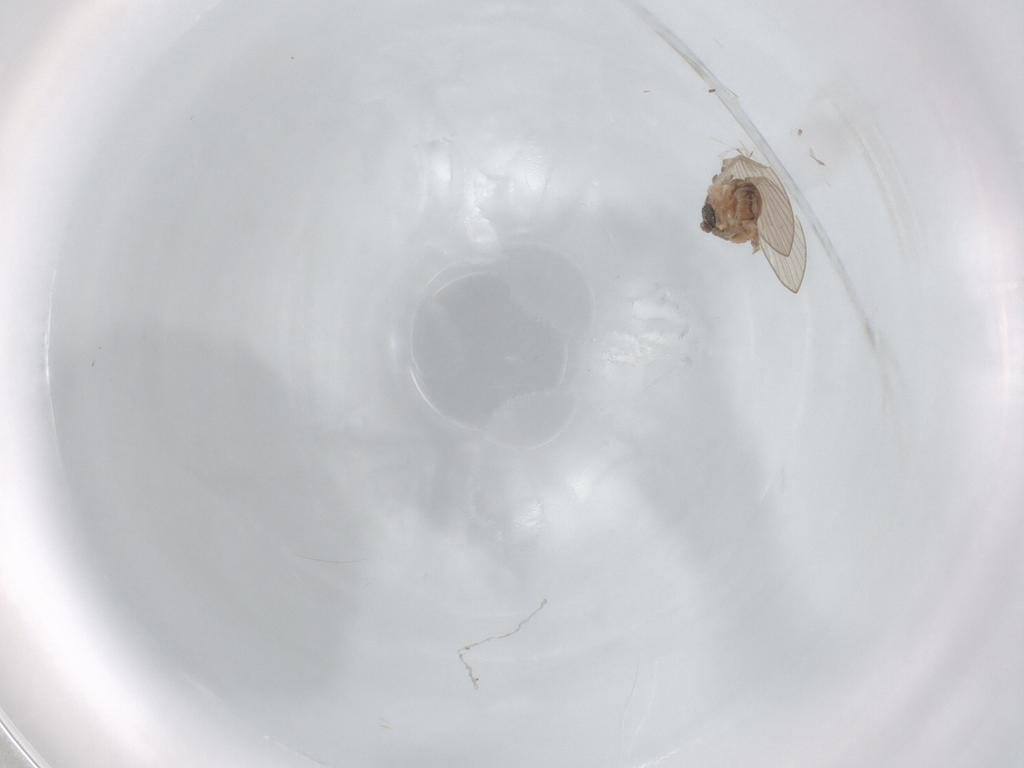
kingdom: Animalia
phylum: Arthropoda
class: Insecta
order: Diptera
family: Psychodidae
